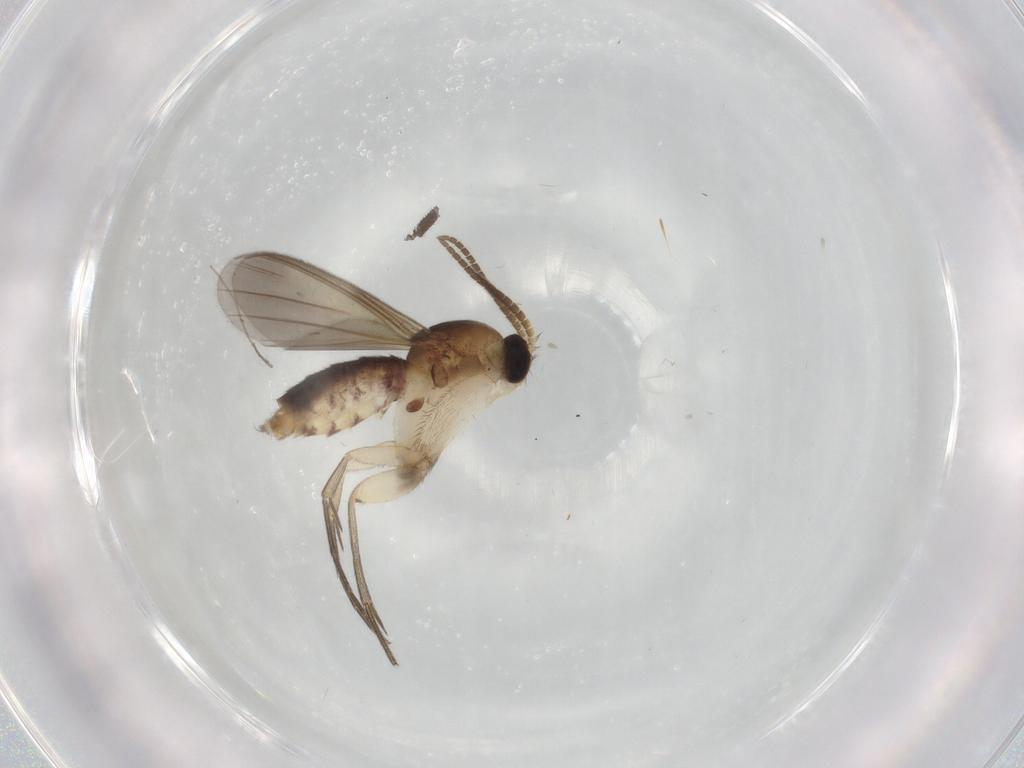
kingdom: Animalia
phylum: Arthropoda
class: Insecta
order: Diptera
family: Mycetophilidae
